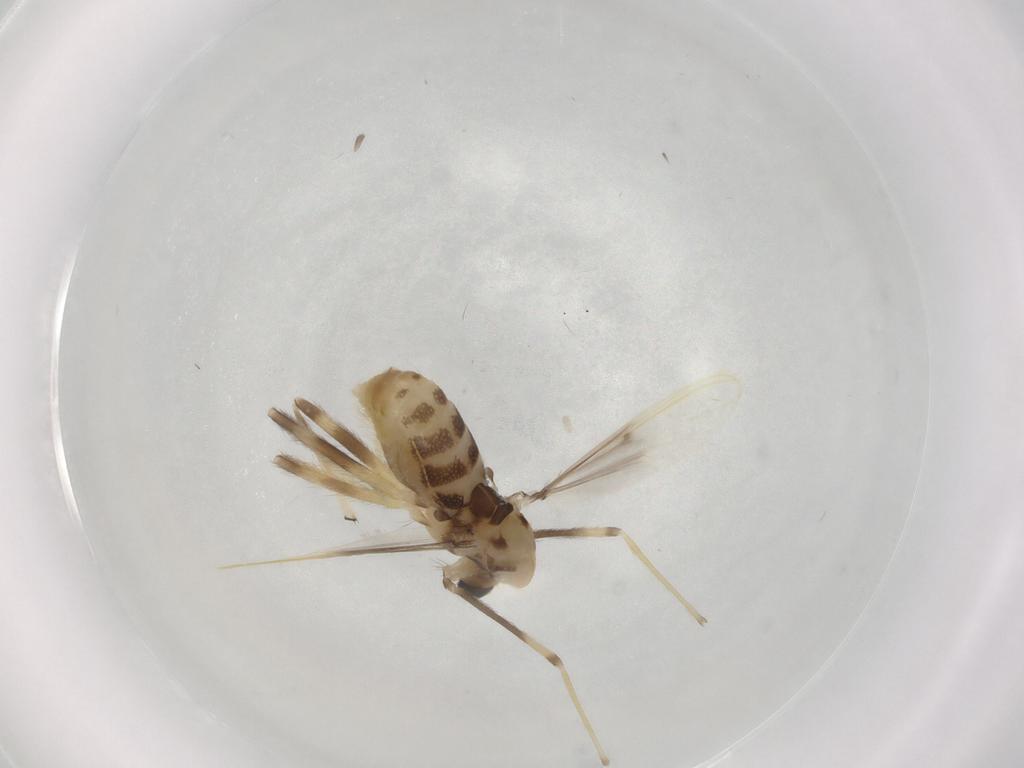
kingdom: Animalia
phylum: Arthropoda
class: Insecta
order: Diptera
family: Chironomidae
